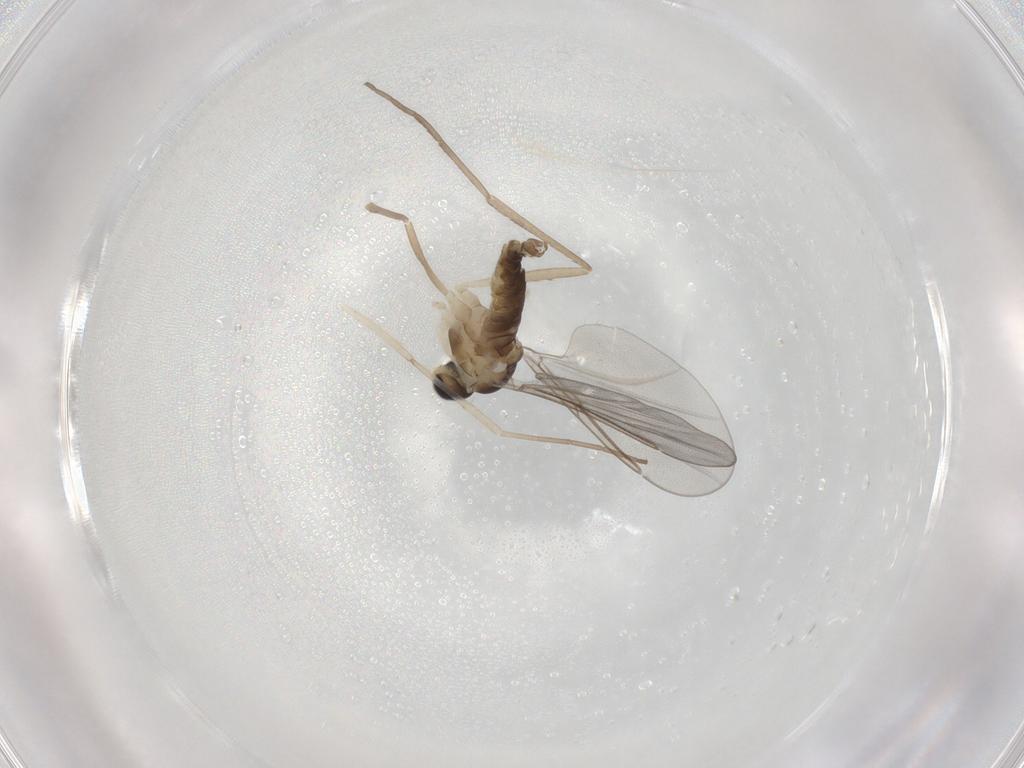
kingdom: Animalia
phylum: Arthropoda
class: Insecta
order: Diptera
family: Cecidomyiidae
